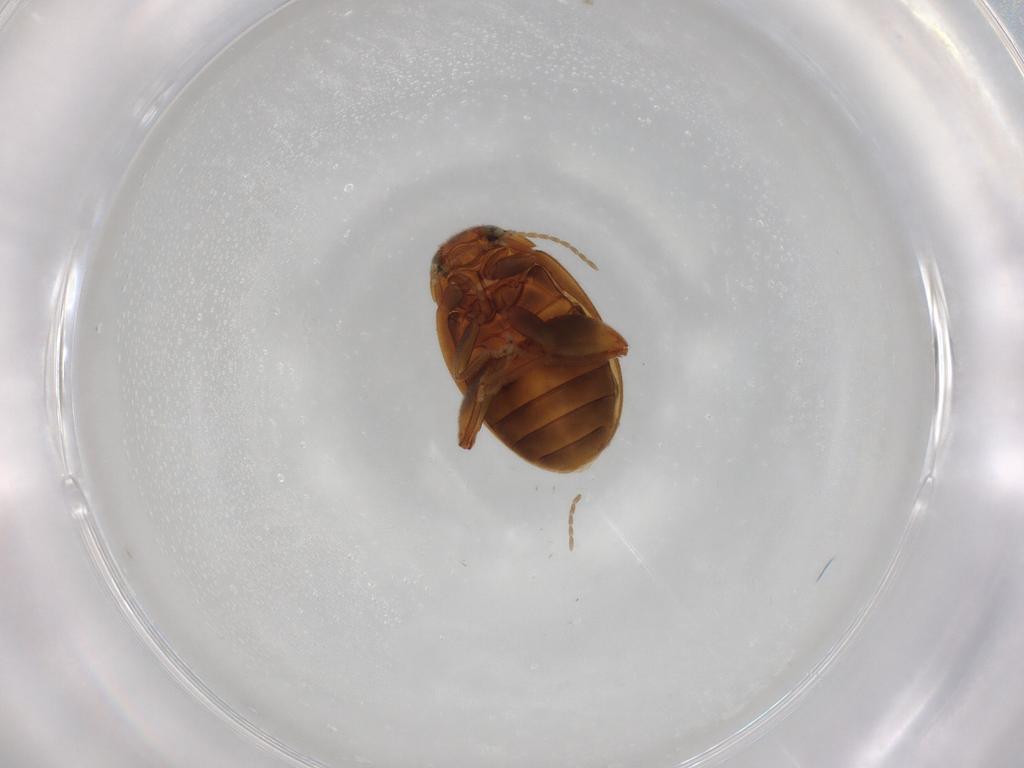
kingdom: Animalia
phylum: Arthropoda
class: Insecta
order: Coleoptera
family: Scirtidae
